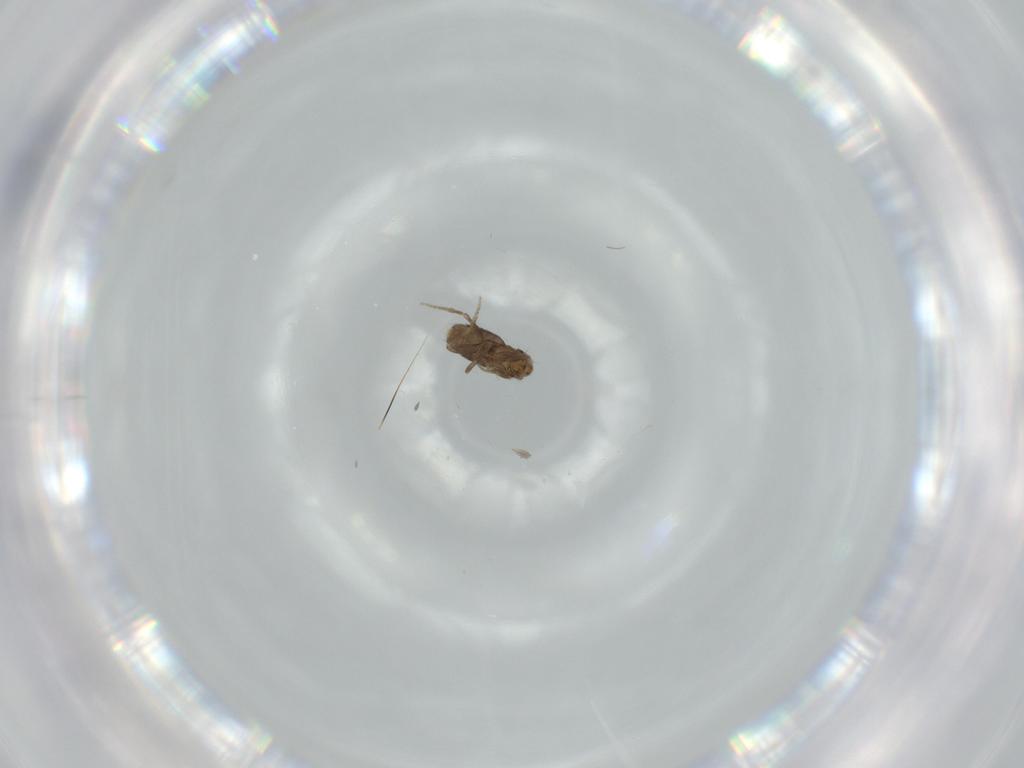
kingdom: Animalia
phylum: Arthropoda
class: Insecta
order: Diptera
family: Phoridae
